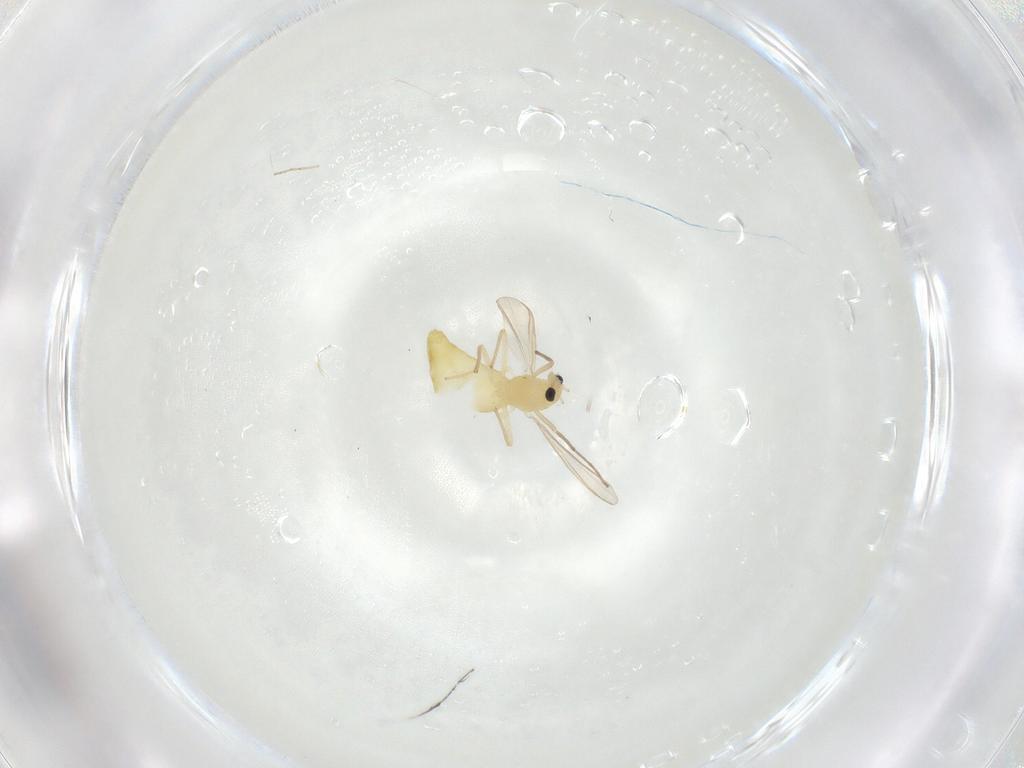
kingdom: Animalia
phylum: Arthropoda
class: Insecta
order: Diptera
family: Chironomidae
